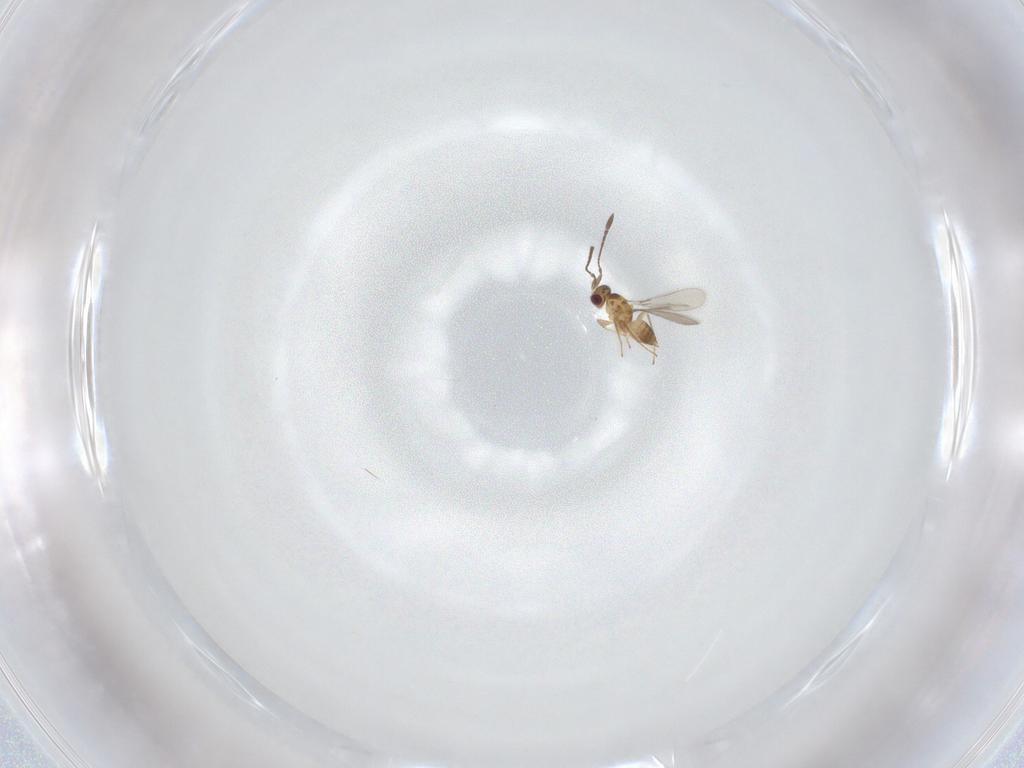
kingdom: Animalia
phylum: Arthropoda
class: Insecta
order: Hymenoptera
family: Mymaridae
